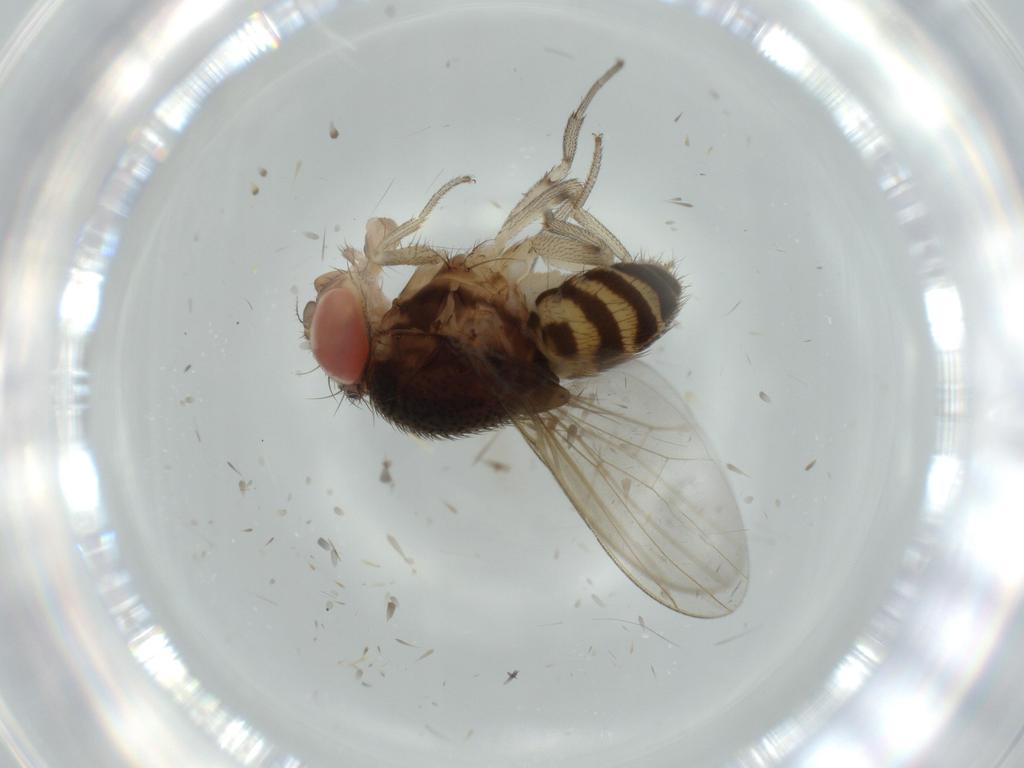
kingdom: Animalia
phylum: Arthropoda
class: Insecta
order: Diptera
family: Drosophilidae
